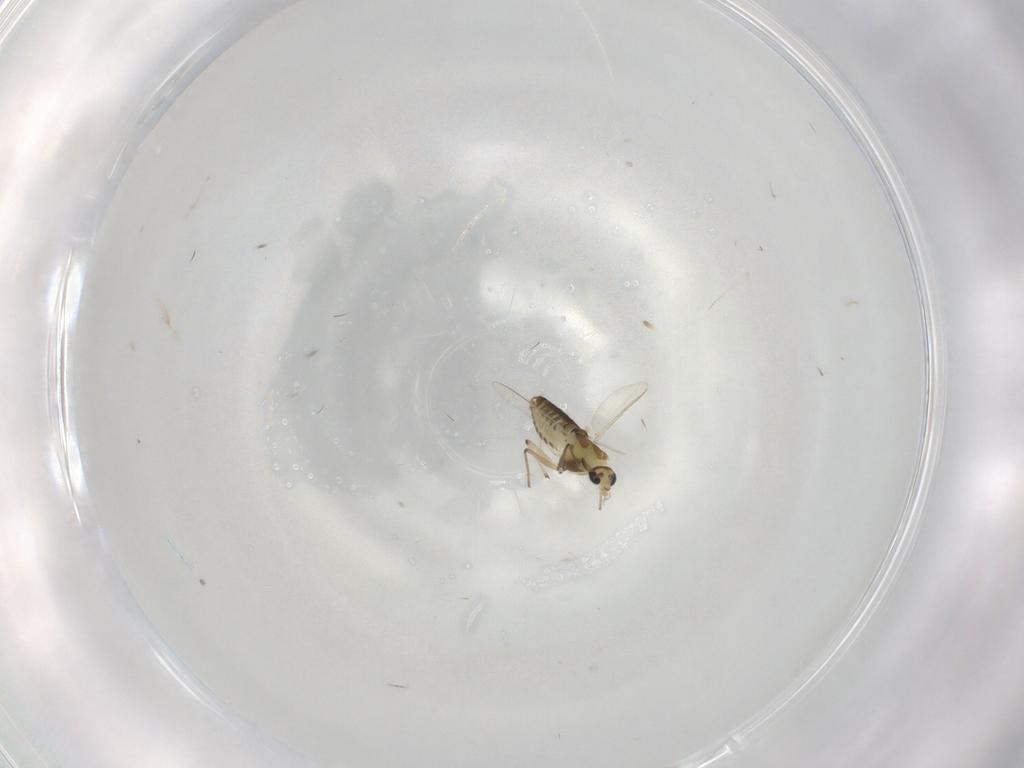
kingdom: Animalia
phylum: Arthropoda
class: Insecta
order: Diptera
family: Chironomidae
